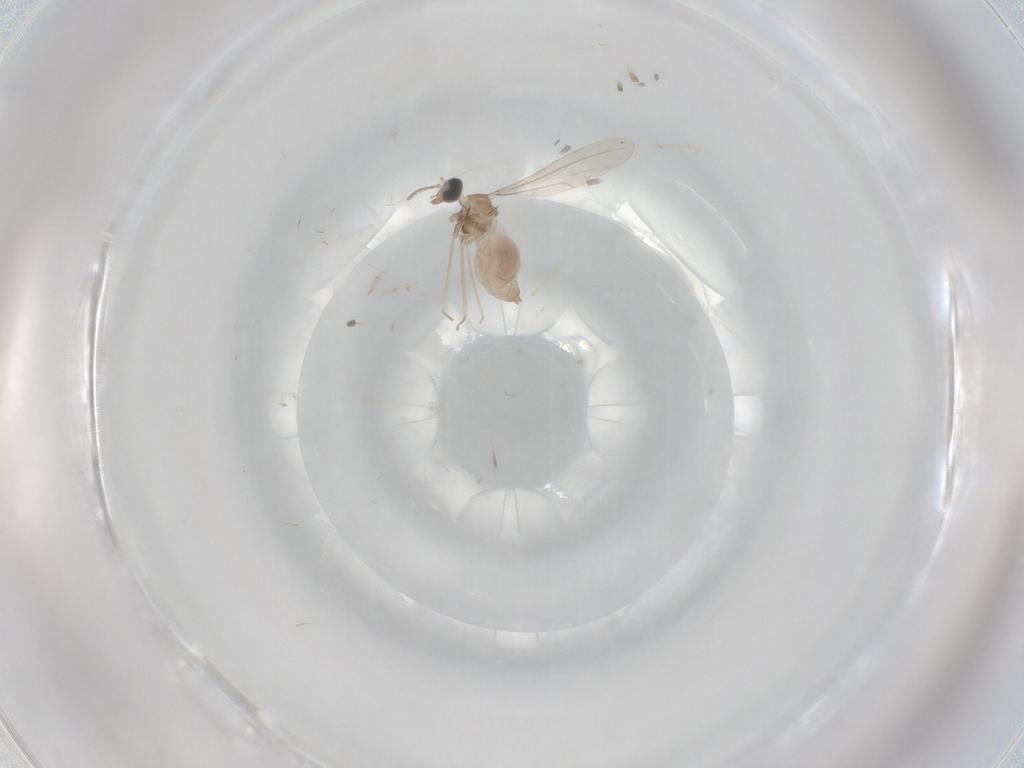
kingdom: Animalia
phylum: Arthropoda
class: Insecta
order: Diptera
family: Cecidomyiidae
